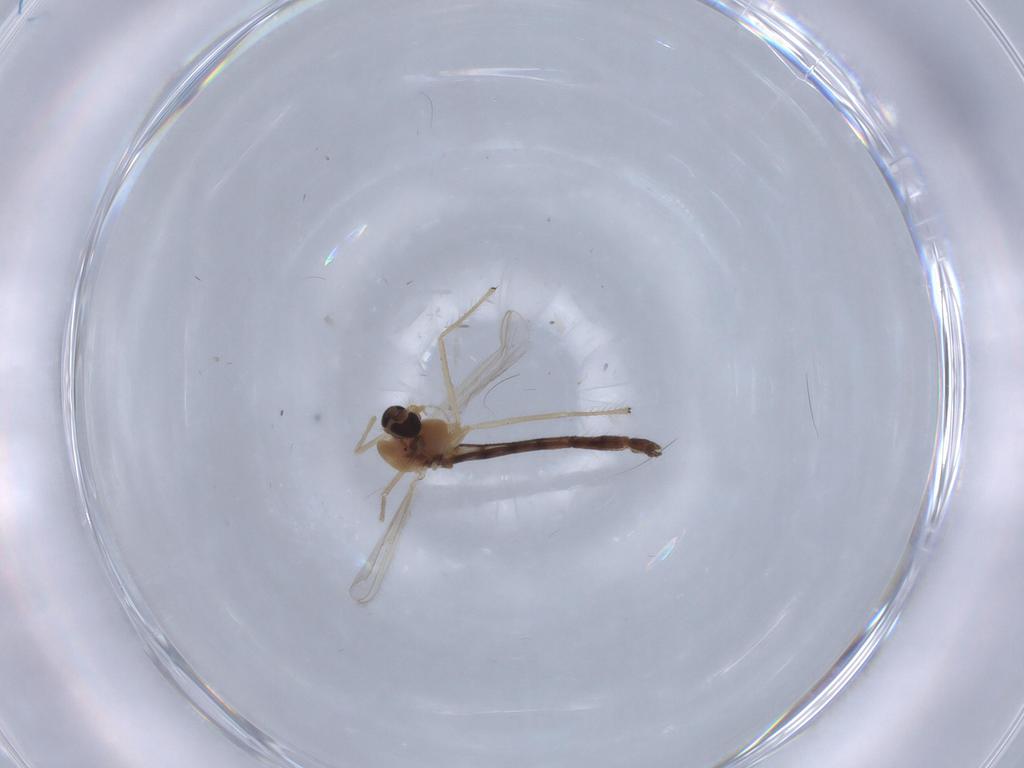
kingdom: Animalia
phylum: Arthropoda
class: Insecta
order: Diptera
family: Chironomidae
